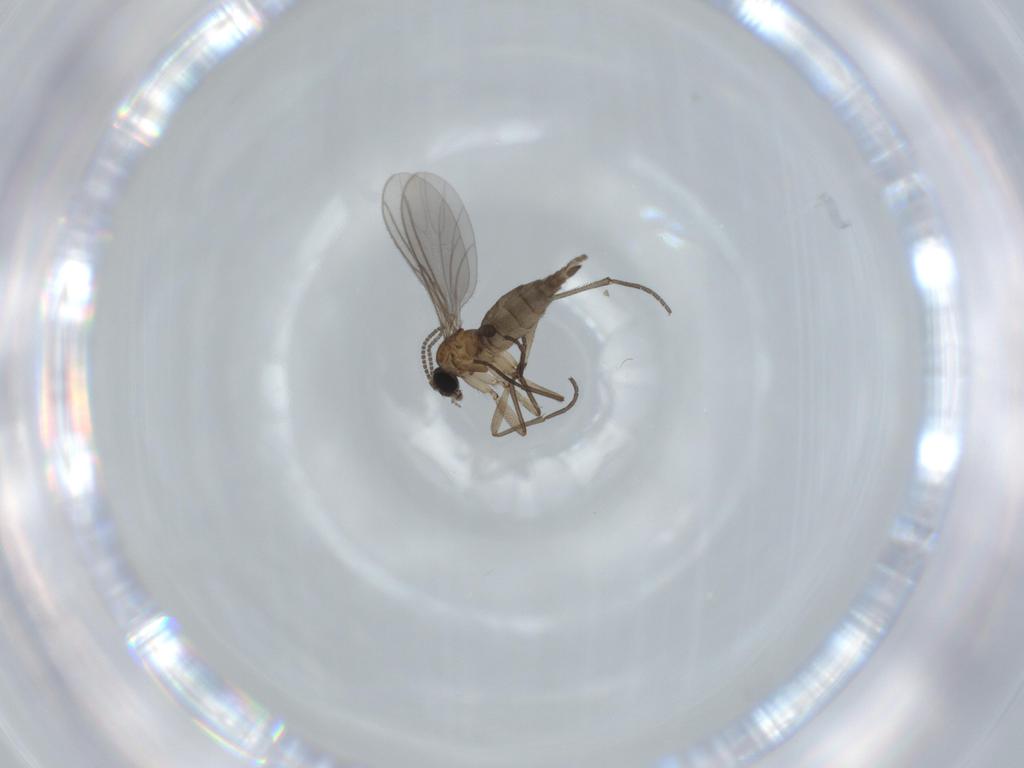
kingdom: Animalia
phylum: Arthropoda
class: Insecta
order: Diptera
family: Sciaridae
